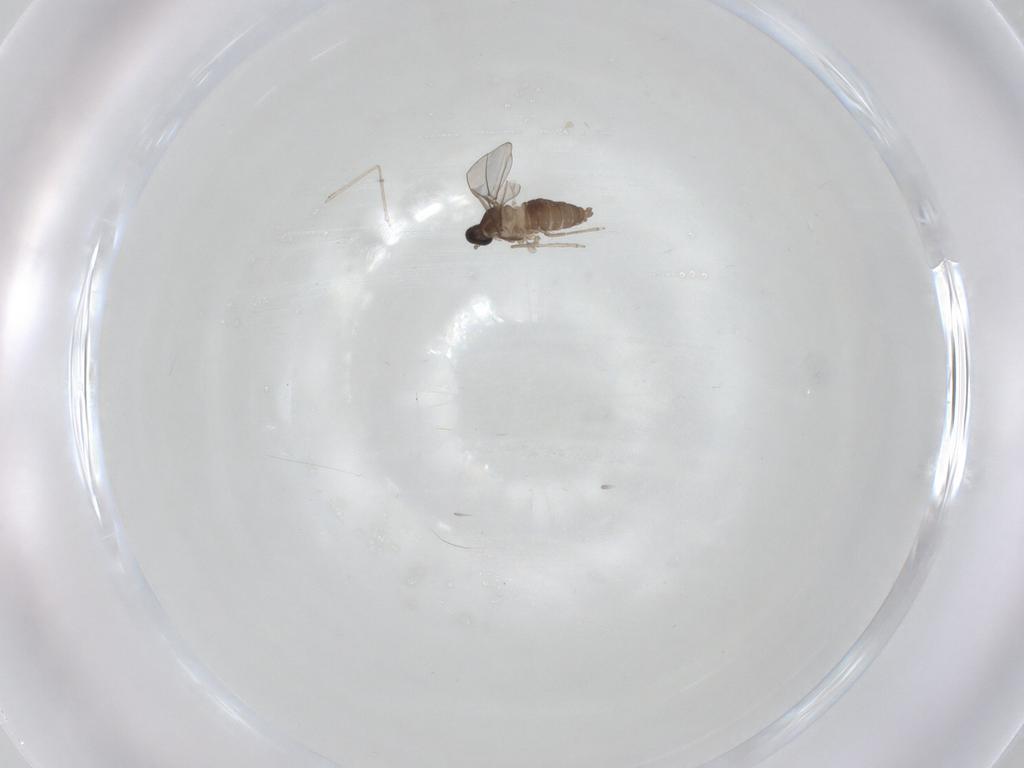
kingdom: Animalia
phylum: Arthropoda
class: Insecta
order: Diptera
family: Cecidomyiidae
